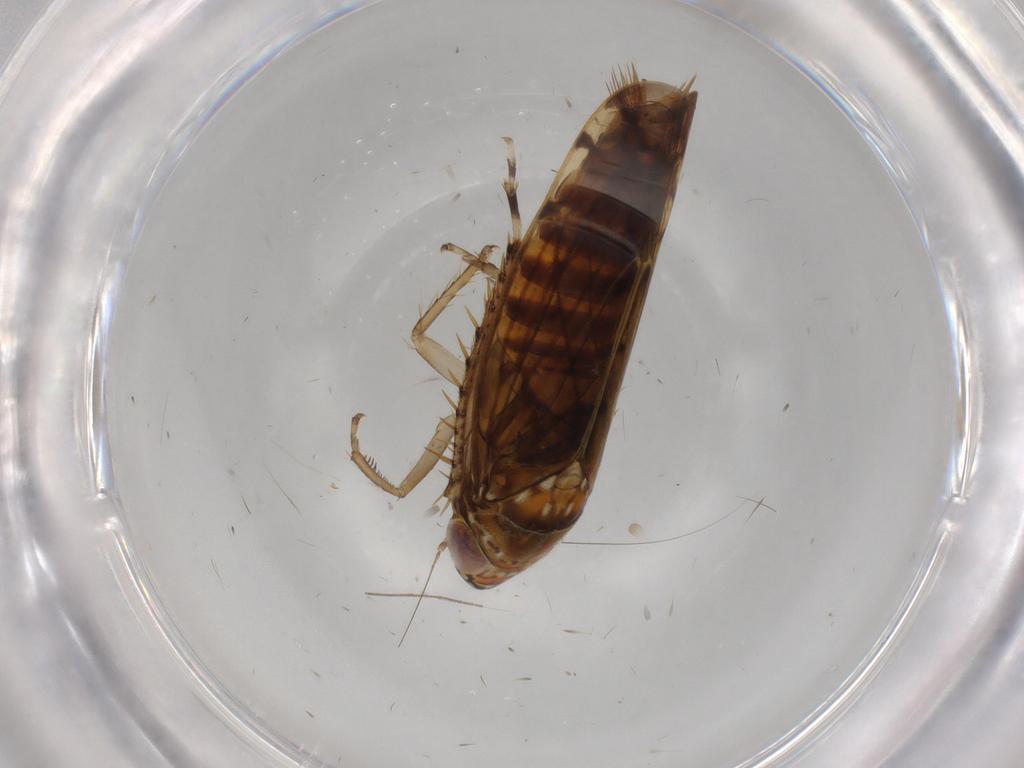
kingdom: Animalia
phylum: Arthropoda
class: Insecta
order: Hemiptera
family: Cicadellidae
